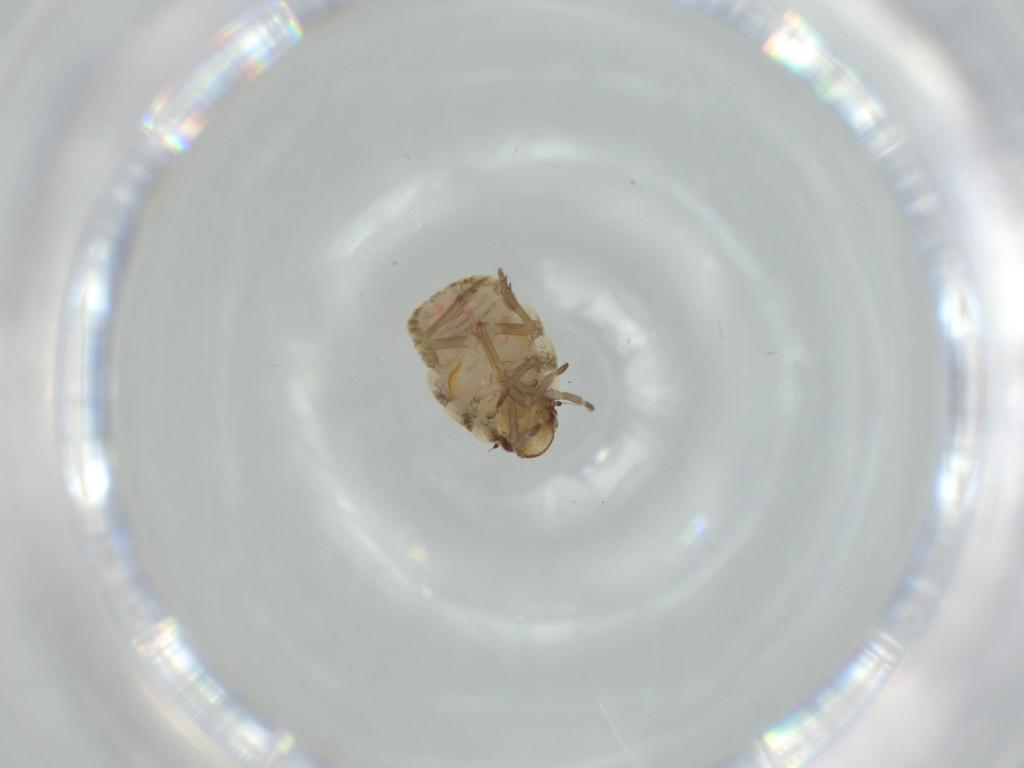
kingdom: Animalia
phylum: Arthropoda
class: Insecta
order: Hemiptera
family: Flatidae
